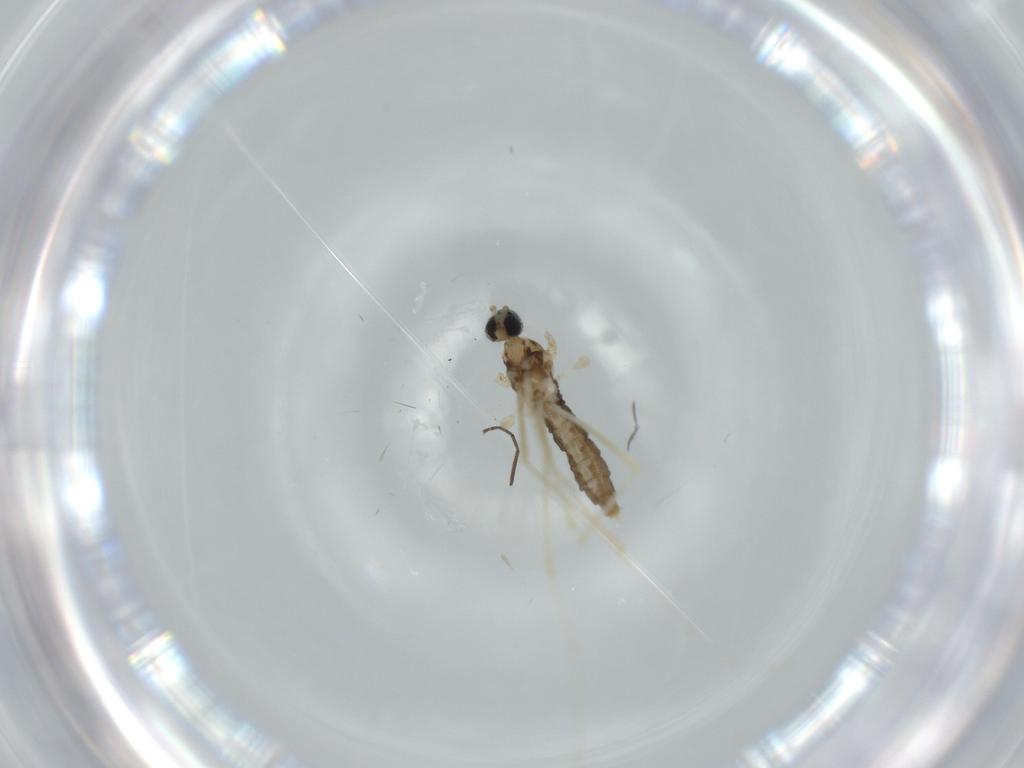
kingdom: Animalia
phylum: Arthropoda
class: Insecta
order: Diptera
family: Cecidomyiidae
